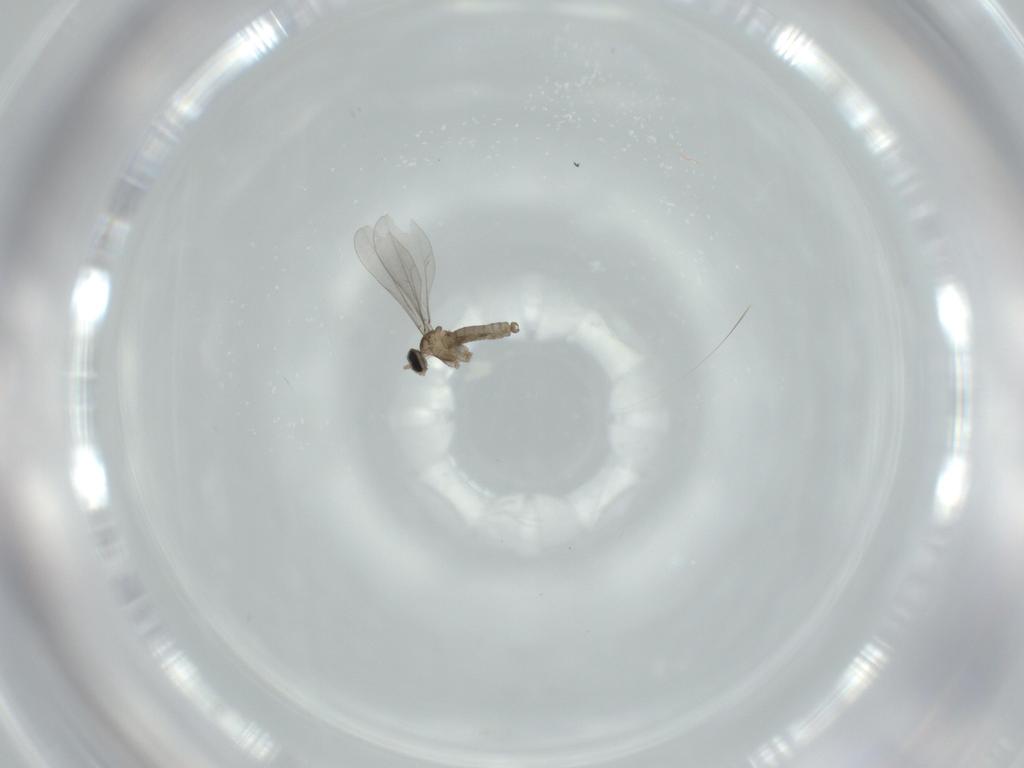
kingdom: Animalia
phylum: Arthropoda
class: Insecta
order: Diptera
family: Cecidomyiidae
